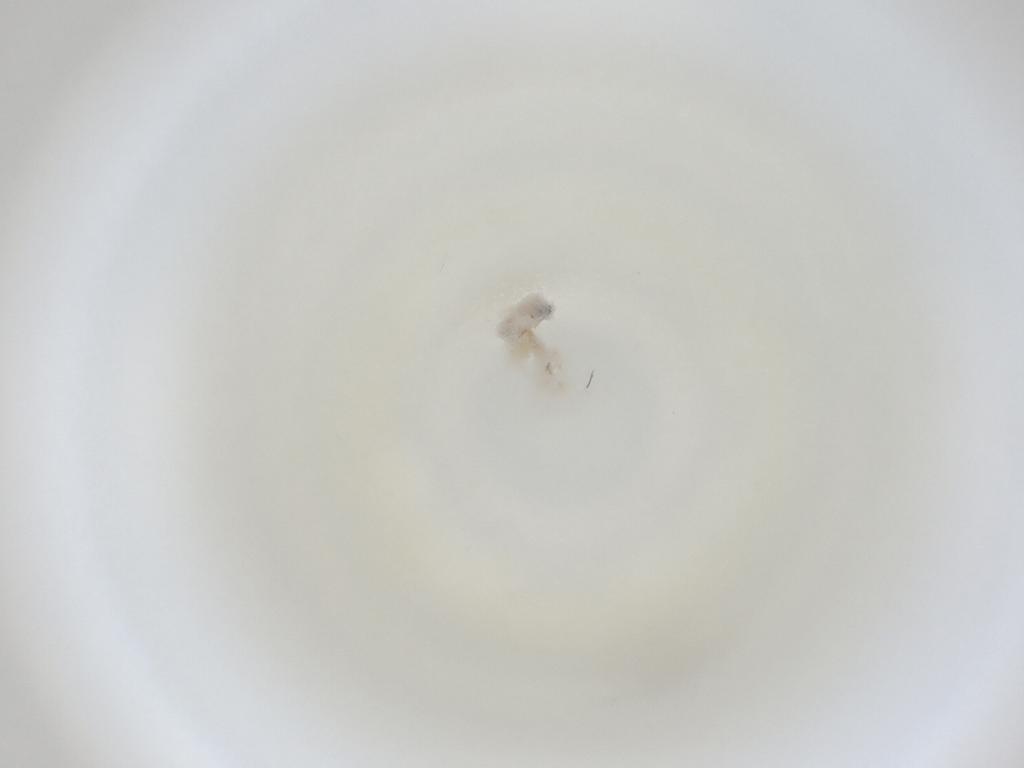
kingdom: Animalia
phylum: Arthropoda
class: Insecta
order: Diptera
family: Cecidomyiidae
